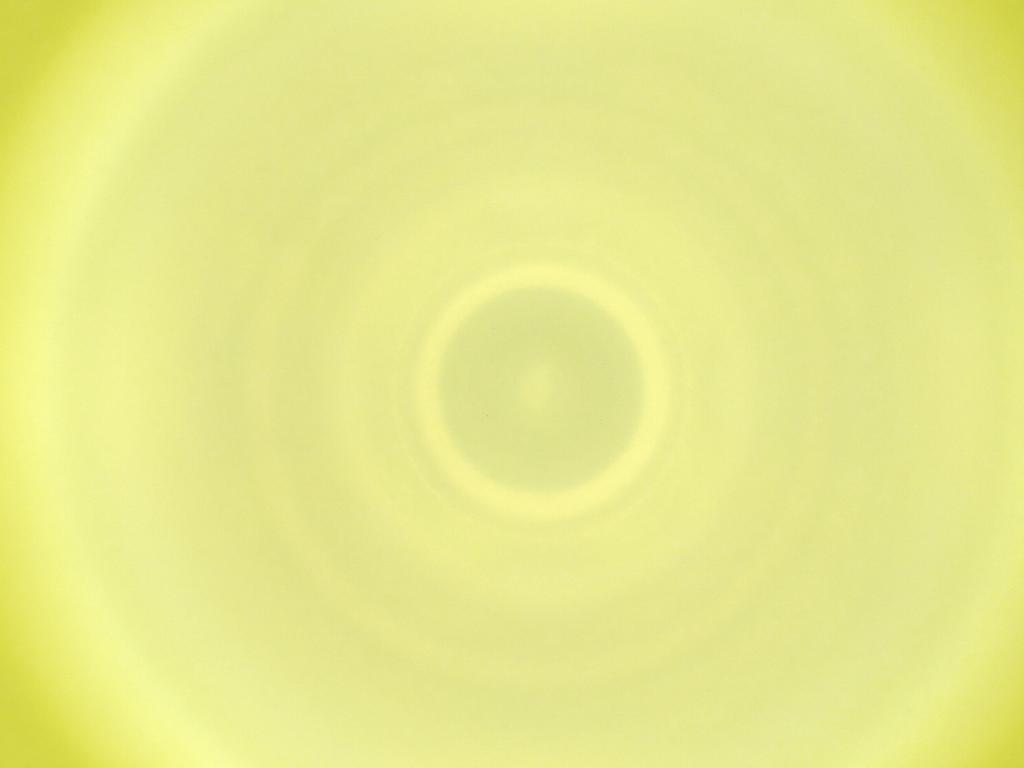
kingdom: Animalia
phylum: Arthropoda
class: Insecta
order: Diptera
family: Cecidomyiidae
